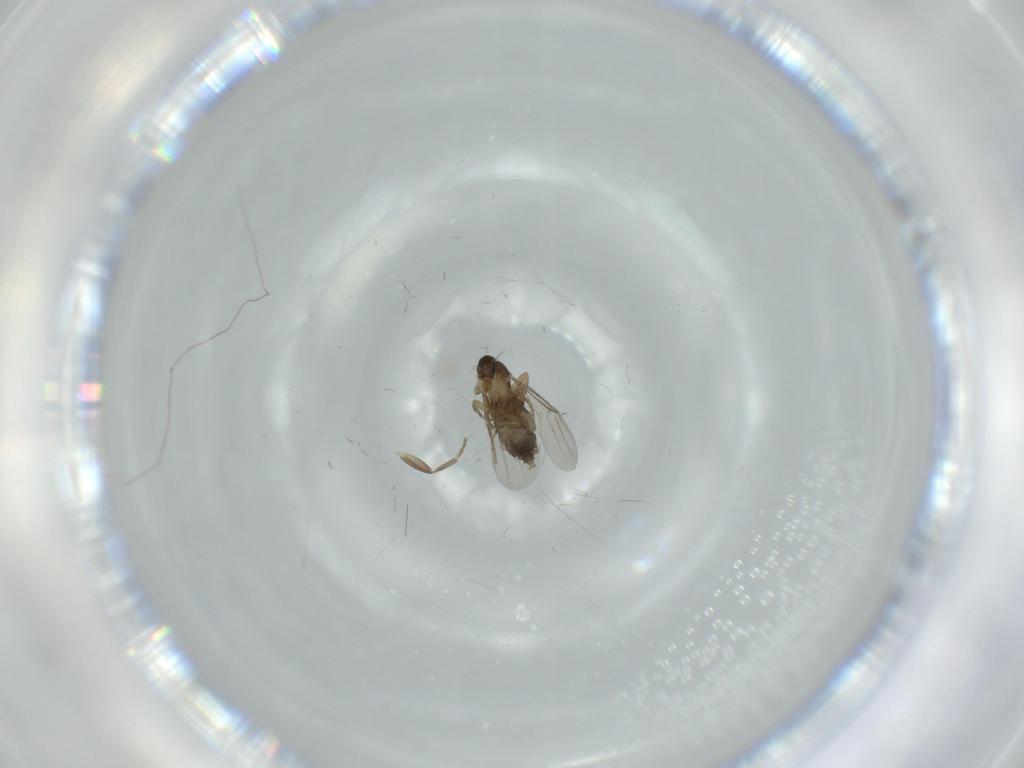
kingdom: Animalia
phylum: Arthropoda
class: Insecta
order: Diptera
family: Phoridae
